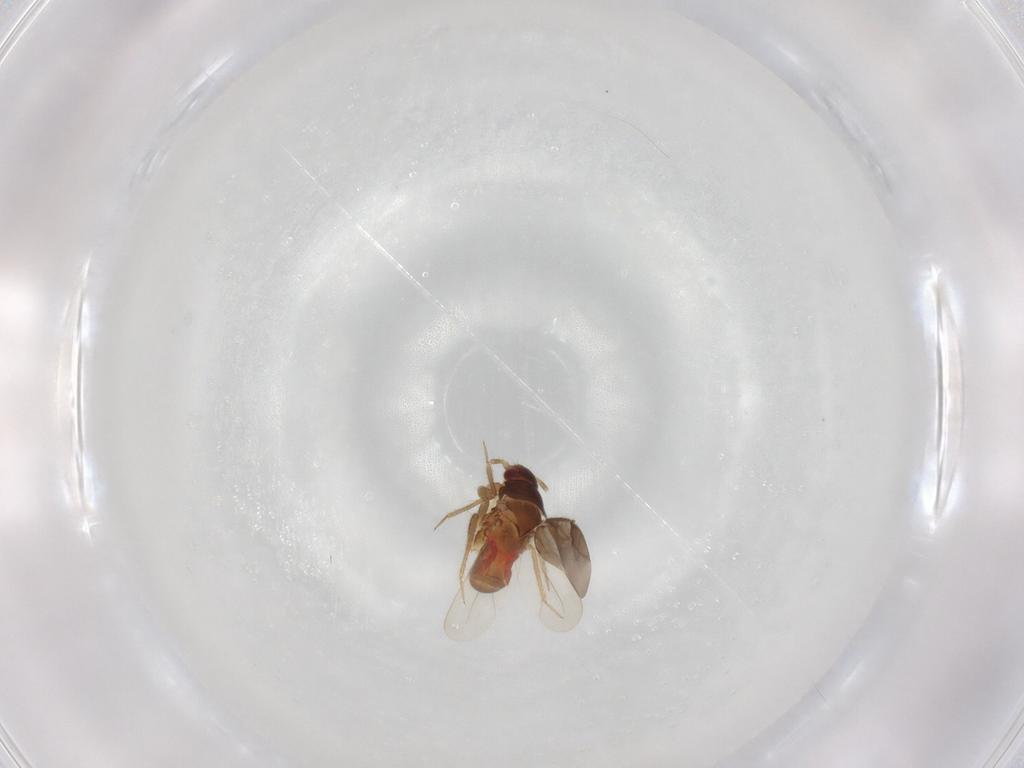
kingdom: Animalia
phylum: Arthropoda
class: Insecta
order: Hemiptera
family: Ceratocombidae
